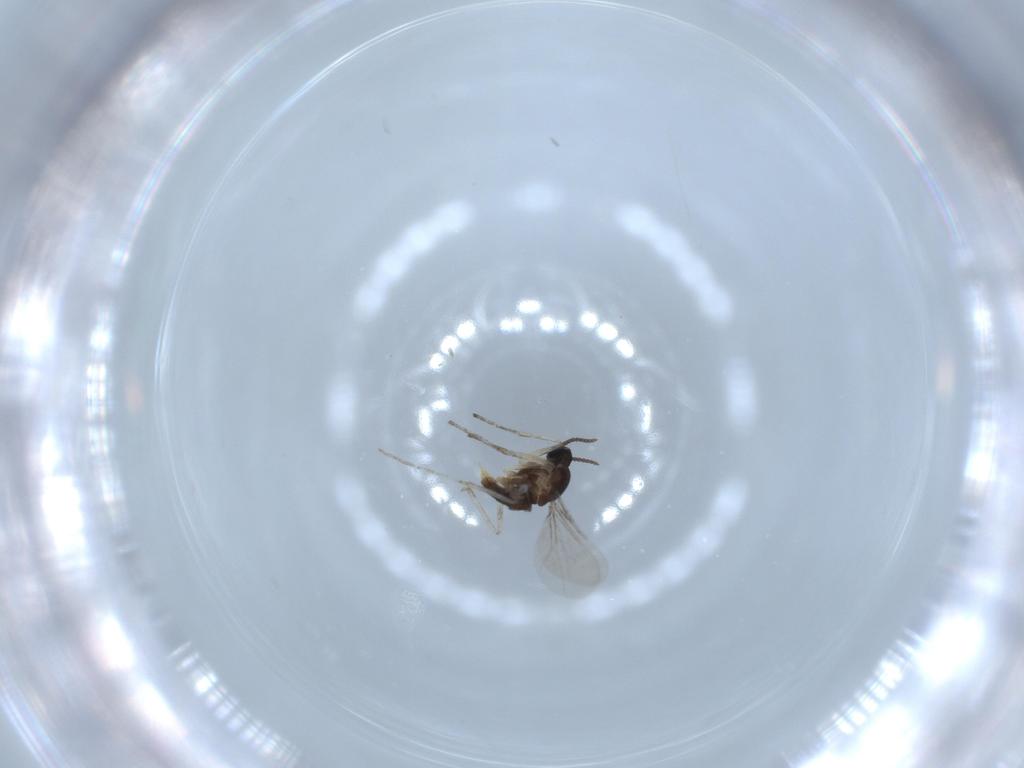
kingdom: Animalia
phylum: Arthropoda
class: Insecta
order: Diptera
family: Cecidomyiidae
